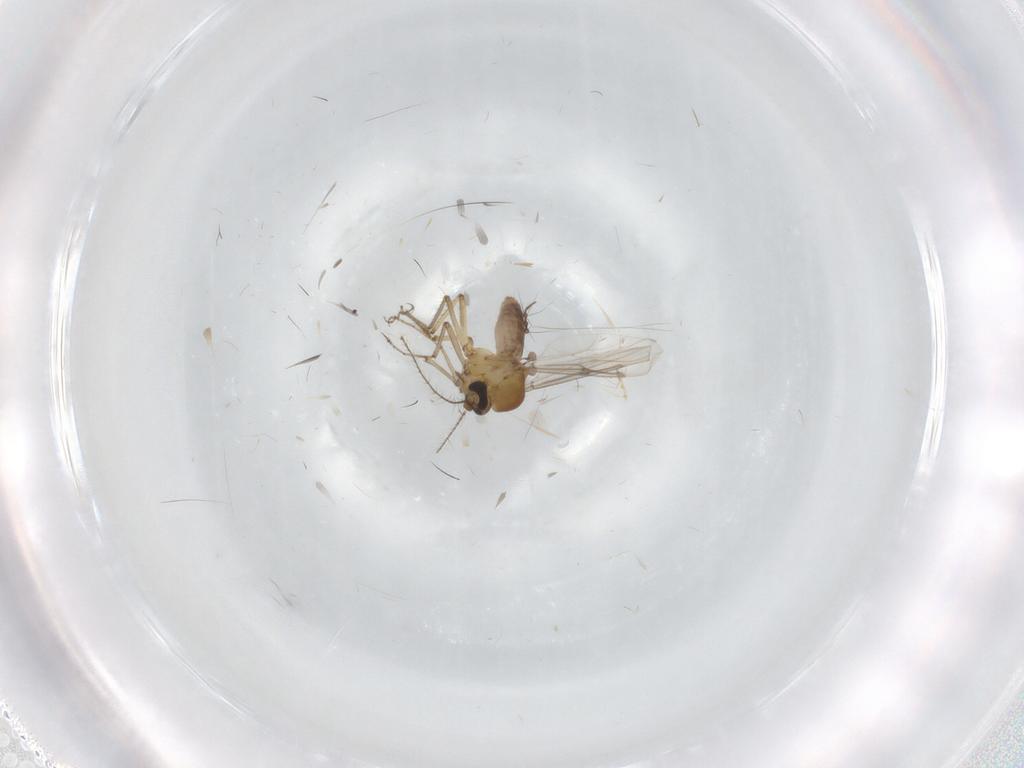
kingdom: Animalia
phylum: Arthropoda
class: Insecta
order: Diptera
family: Ceratopogonidae
